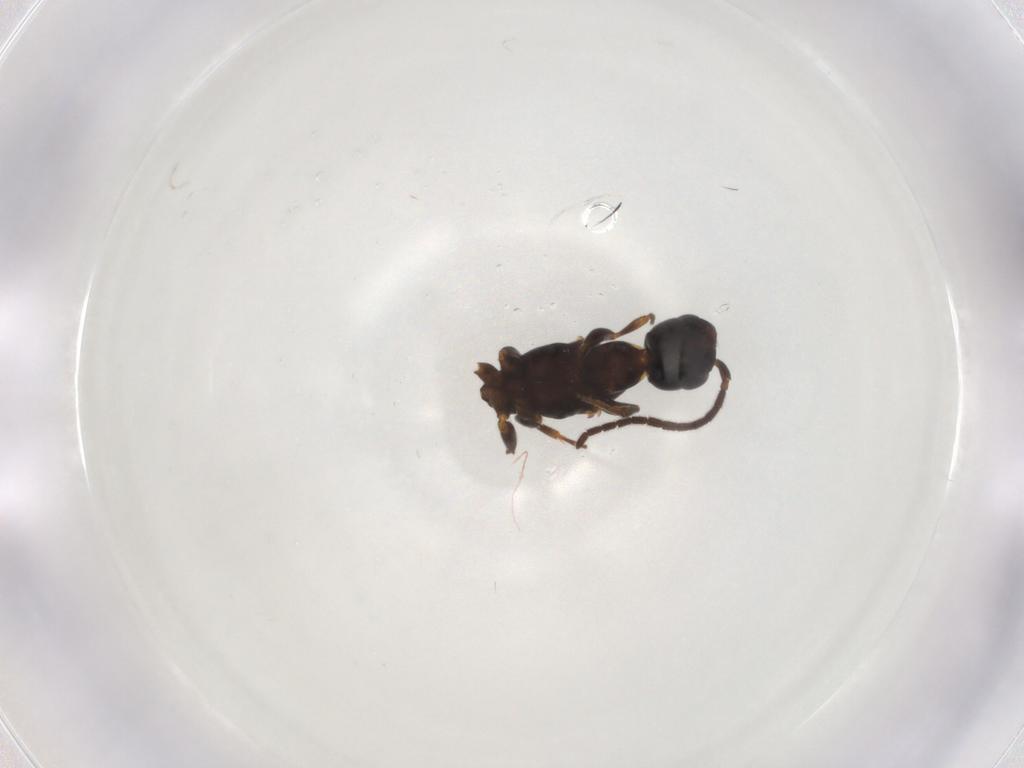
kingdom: Animalia
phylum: Arthropoda
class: Insecta
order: Hymenoptera
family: Bethylidae
